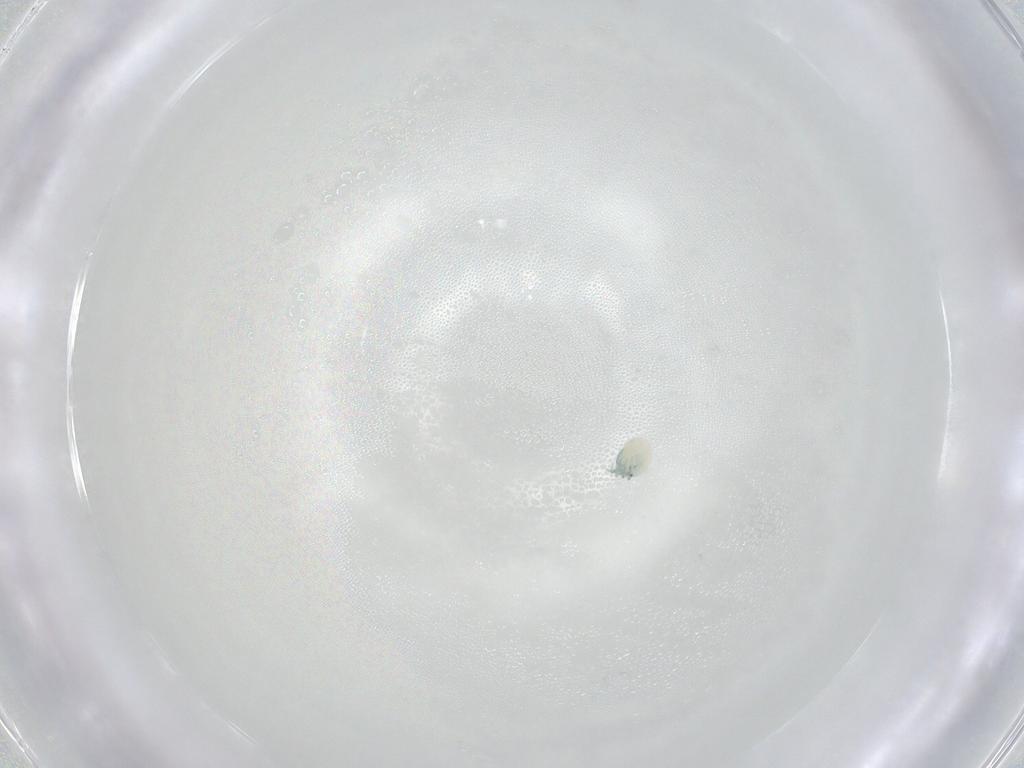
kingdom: Animalia
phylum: Arthropoda
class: Arachnida
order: Trombidiformes
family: Arrenuridae
